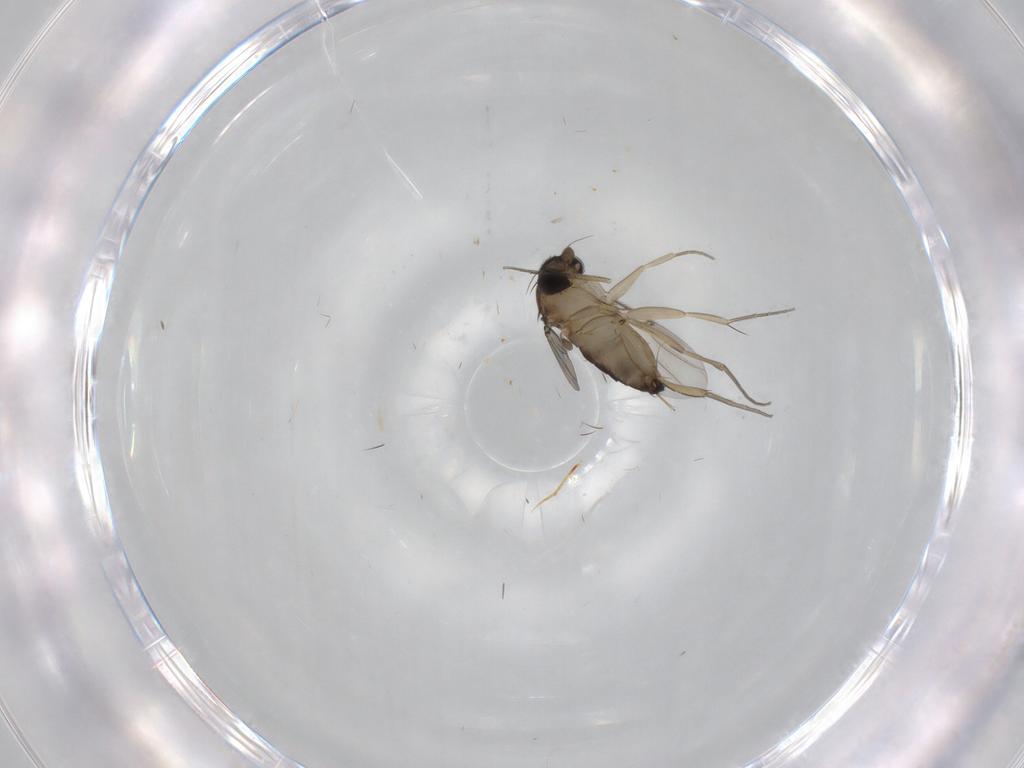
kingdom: Animalia
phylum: Arthropoda
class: Insecta
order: Diptera
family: Phoridae
